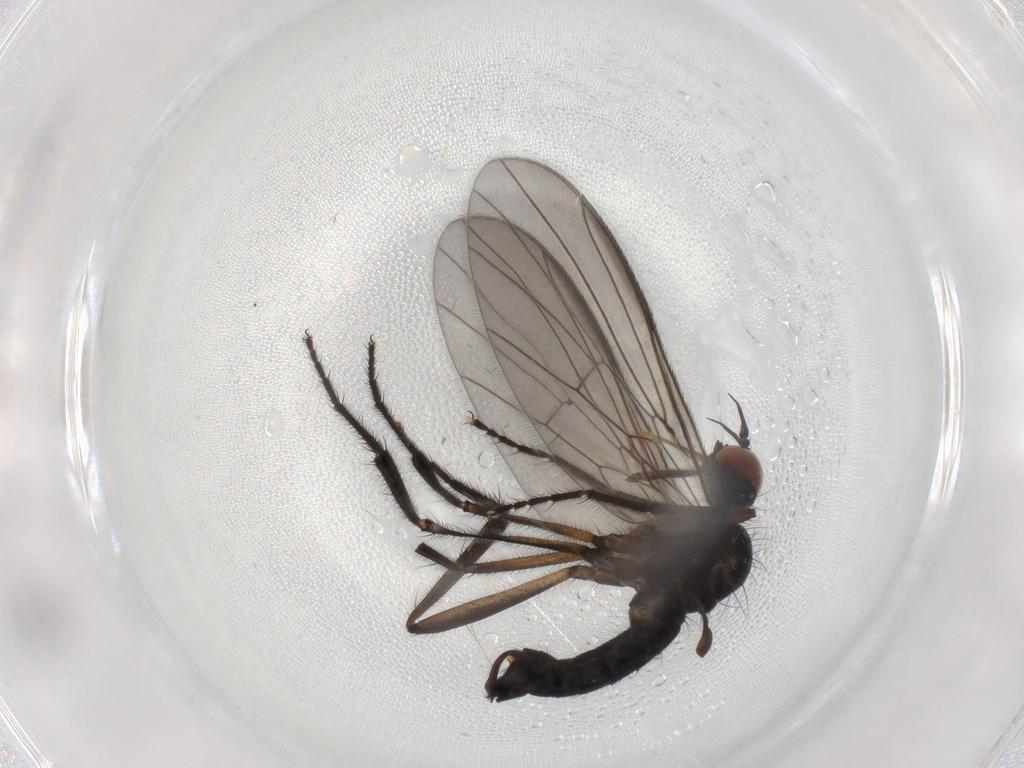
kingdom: Animalia
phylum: Arthropoda
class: Insecta
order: Diptera
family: Empididae
